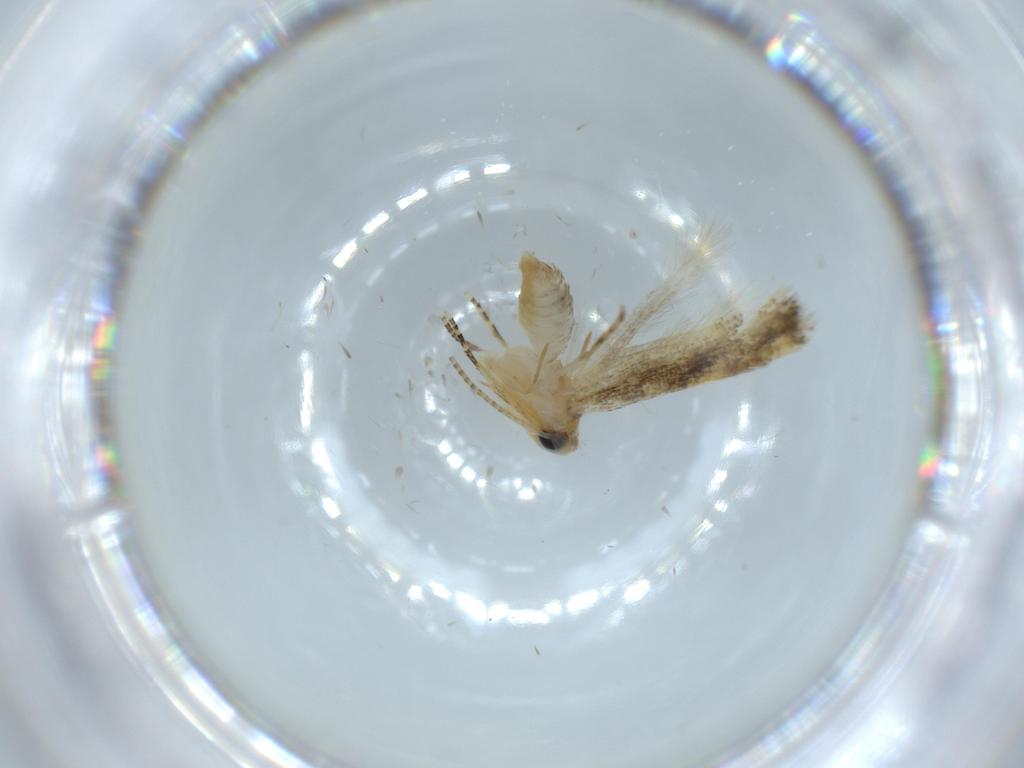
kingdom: Animalia
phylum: Arthropoda
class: Insecta
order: Lepidoptera
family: Bucculatricidae
